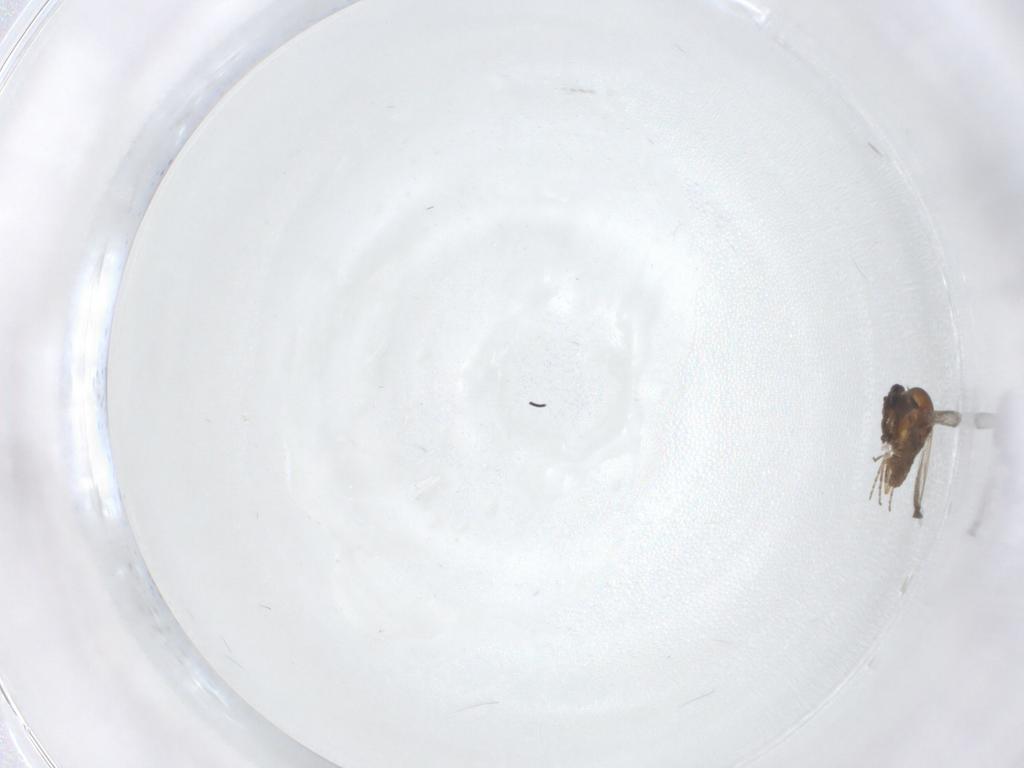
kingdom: Animalia
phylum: Arthropoda
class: Insecta
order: Diptera
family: Ceratopogonidae
